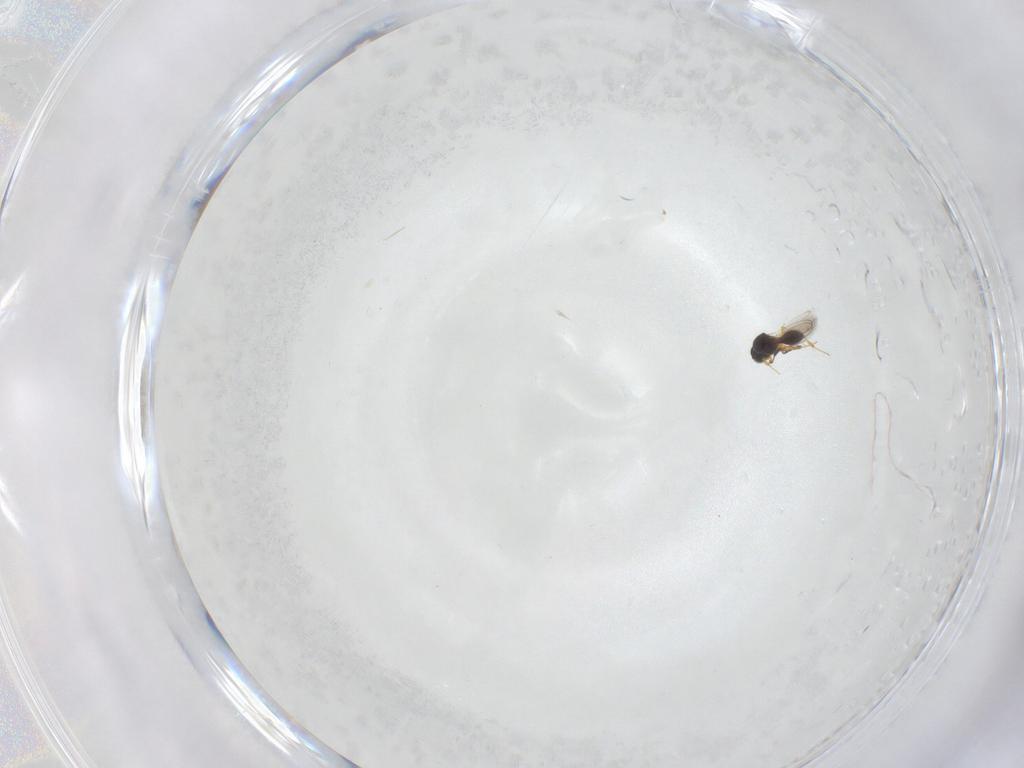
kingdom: Animalia
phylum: Arthropoda
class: Insecta
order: Hymenoptera
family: Platygastridae
